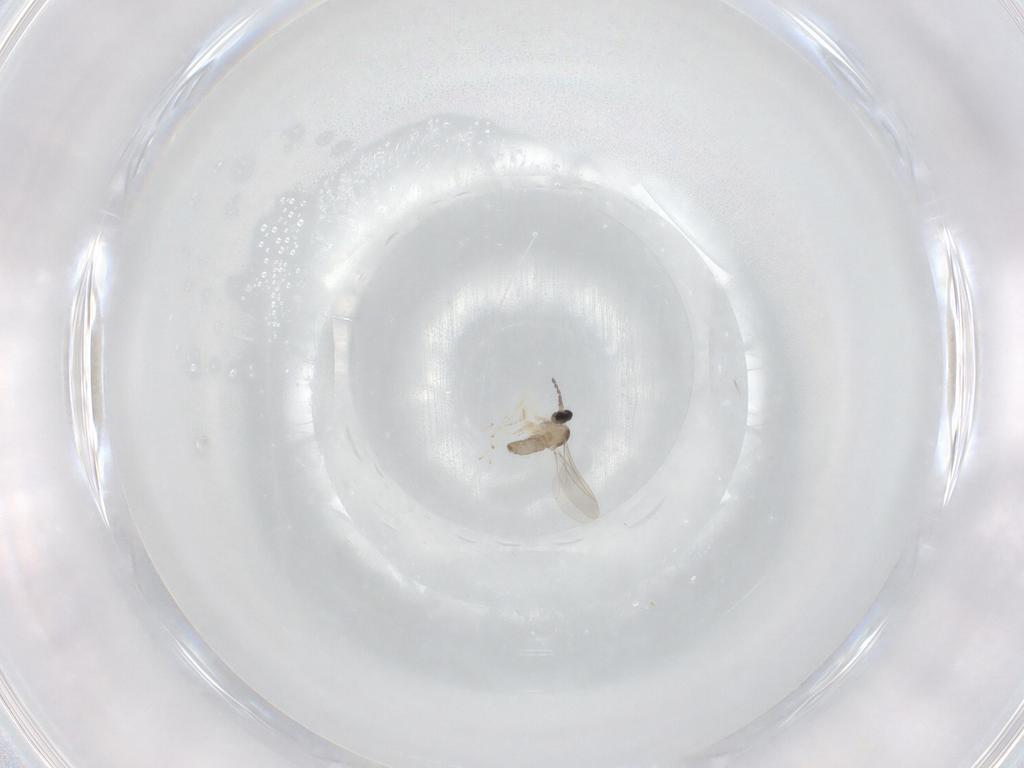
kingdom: Animalia
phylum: Arthropoda
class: Insecta
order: Diptera
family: Cecidomyiidae
